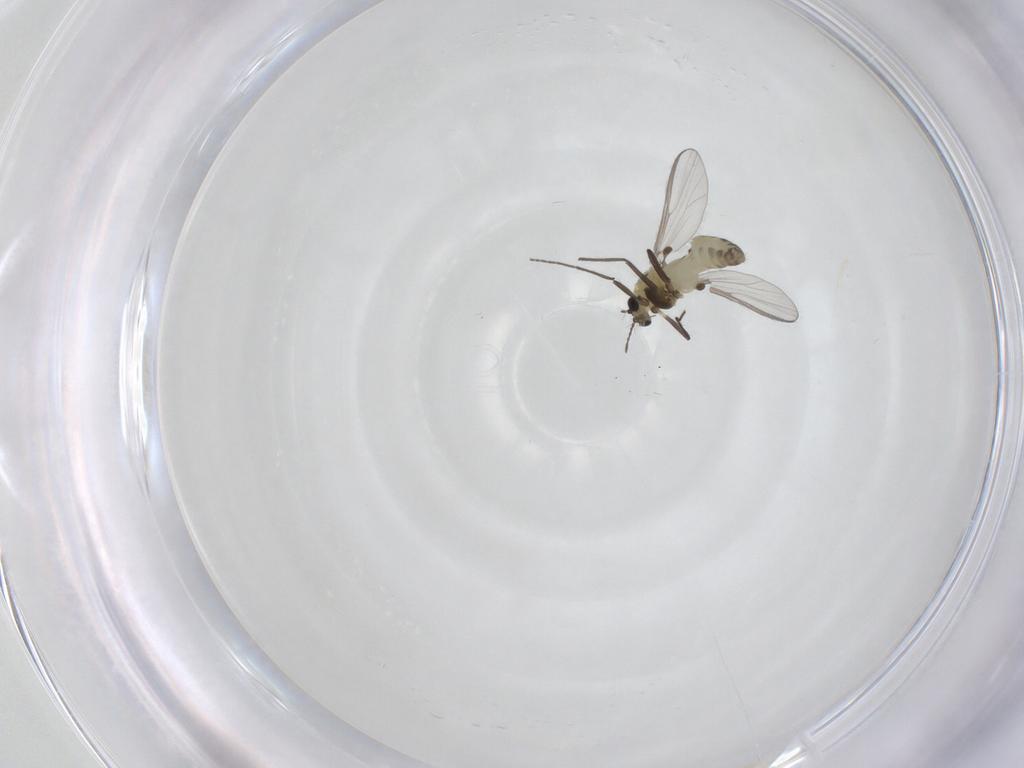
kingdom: Animalia
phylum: Arthropoda
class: Insecta
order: Diptera
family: Chironomidae
